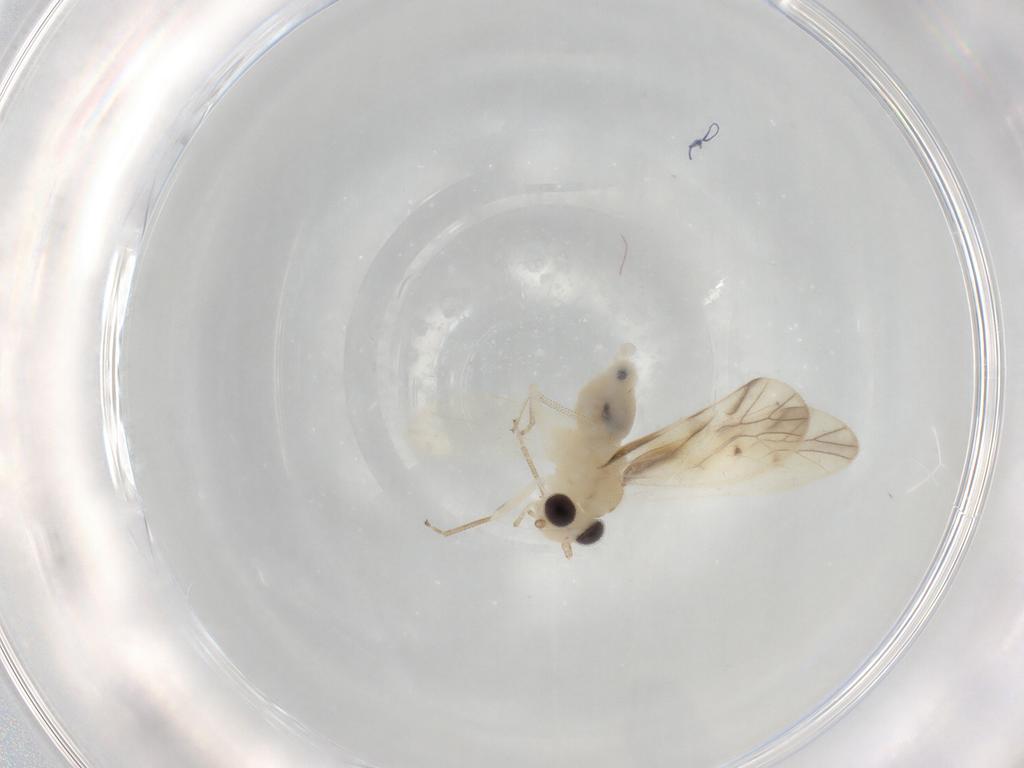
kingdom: Animalia
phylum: Arthropoda
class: Insecta
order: Psocodea
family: Caeciliusidae
